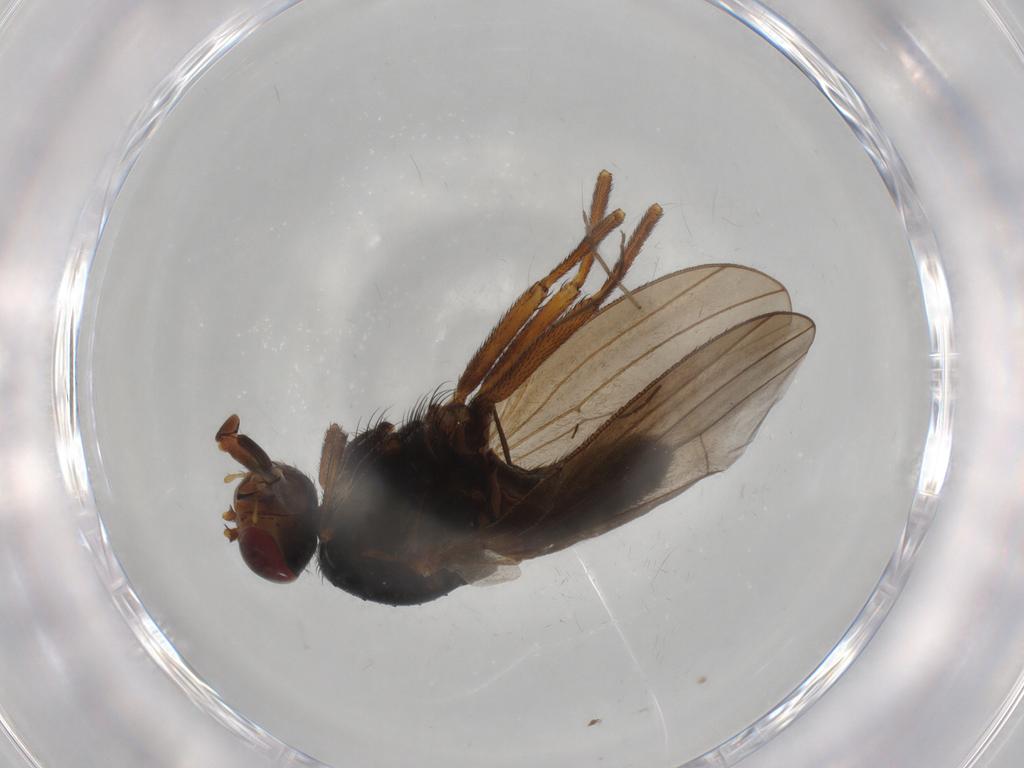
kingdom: Animalia
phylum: Arthropoda
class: Insecta
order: Diptera
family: Heleomyzidae
